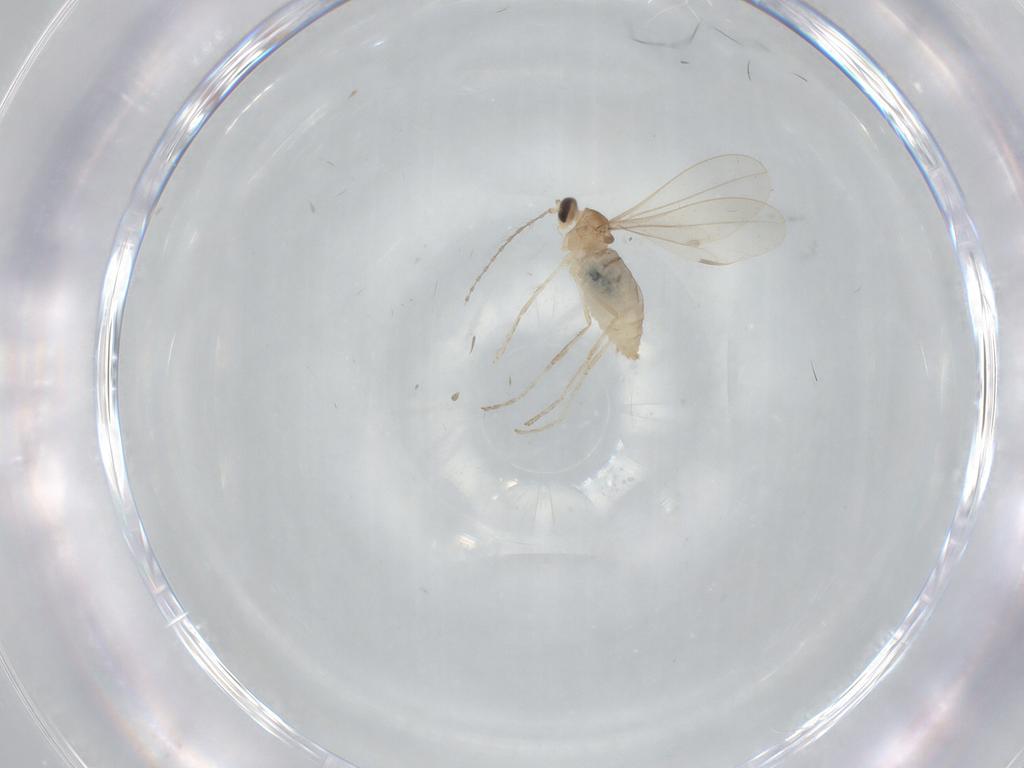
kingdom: Animalia
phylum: Arthropoda
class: Insecta
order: Diptera
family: Cecidomyiidae
